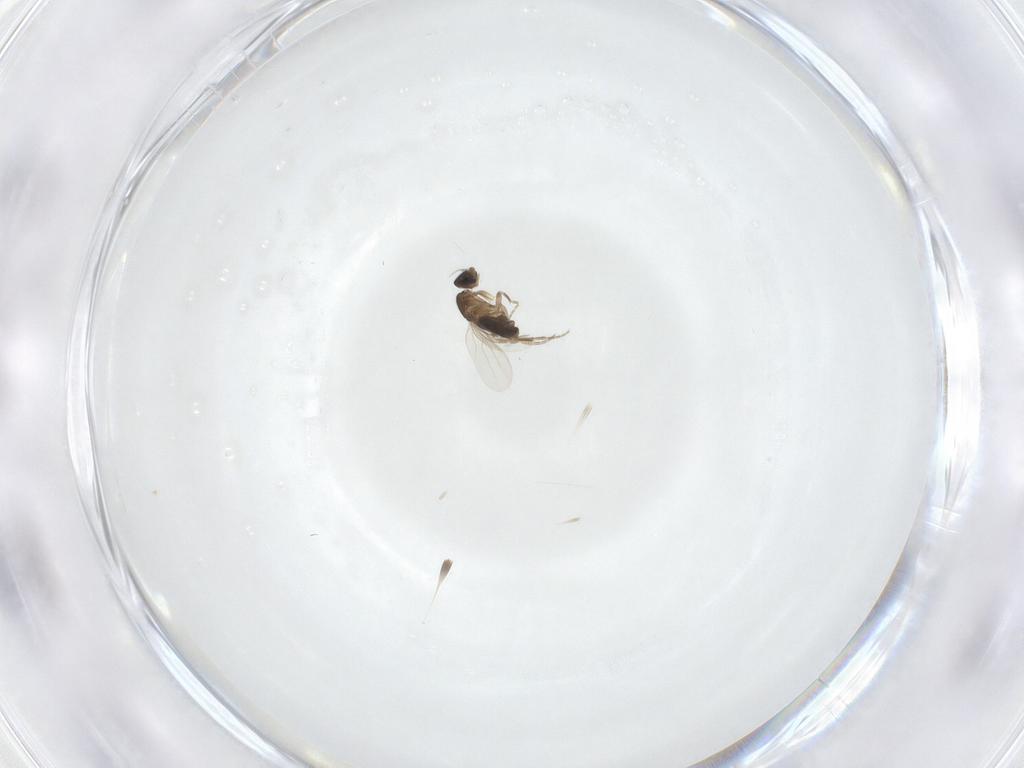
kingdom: Animalia
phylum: Arthropoda
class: Insecta
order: Diptera
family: Phoridae
